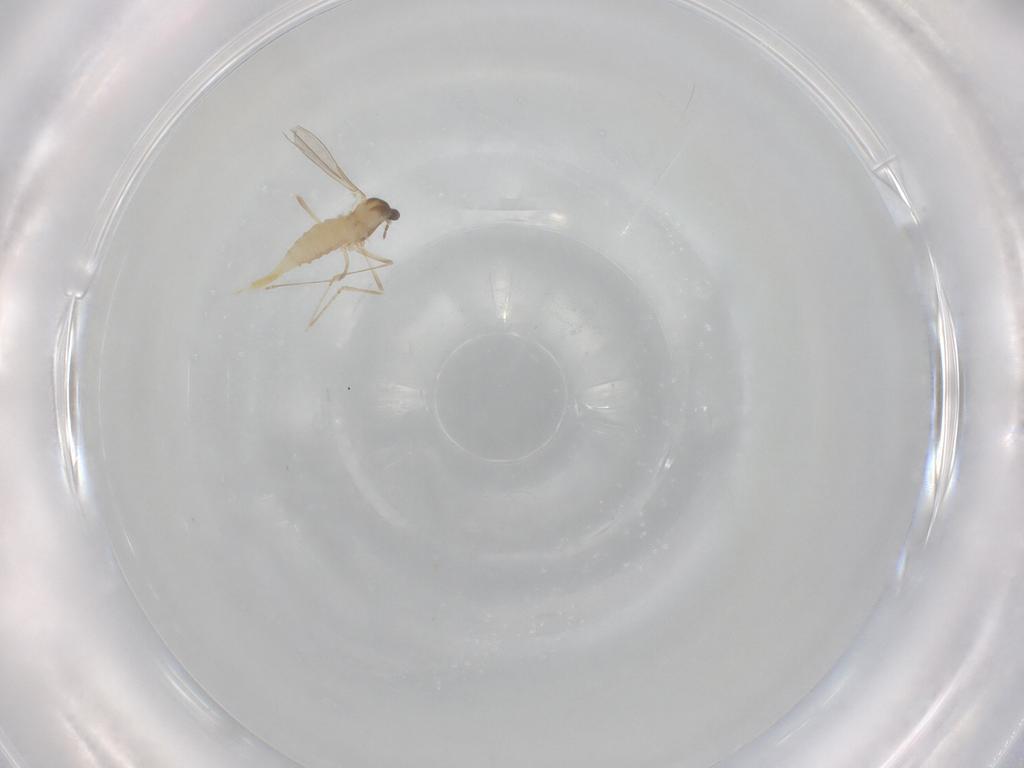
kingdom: Animalia
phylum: Arthropoda
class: Insecta
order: Diptera
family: Cecidomyiidae
